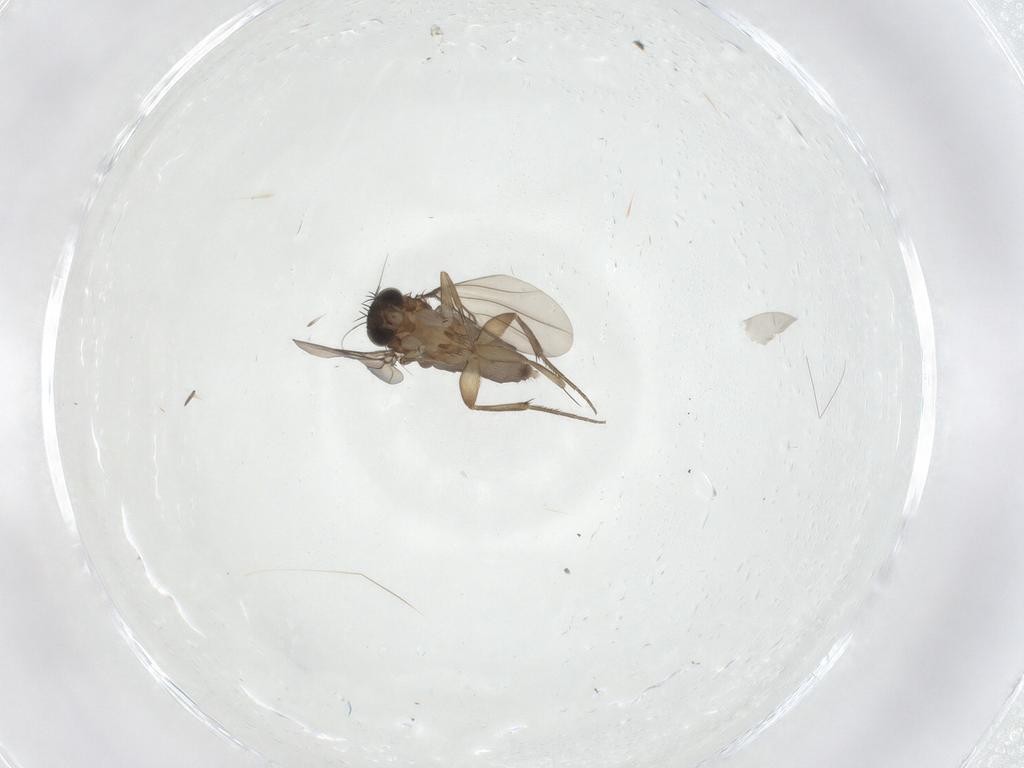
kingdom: Animalia
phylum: Arthropoda
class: Insecta
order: Diptera
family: Phoridae
